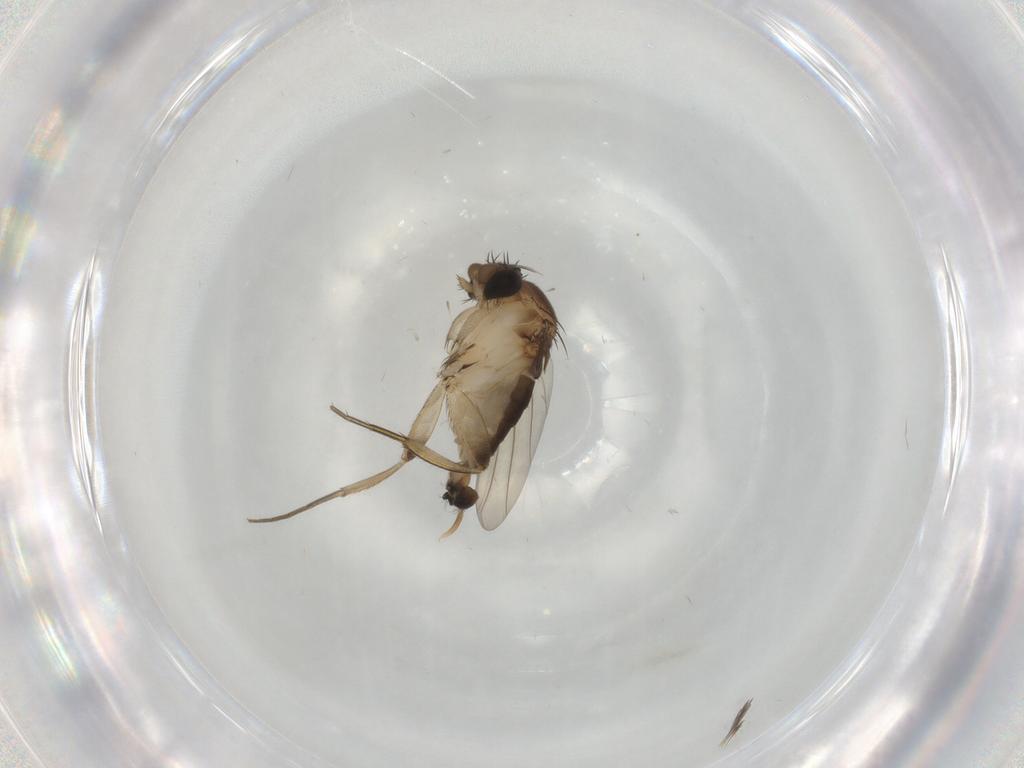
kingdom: Animalia
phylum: Arthropoda
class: Insecta
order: Diptera
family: Phoridae
